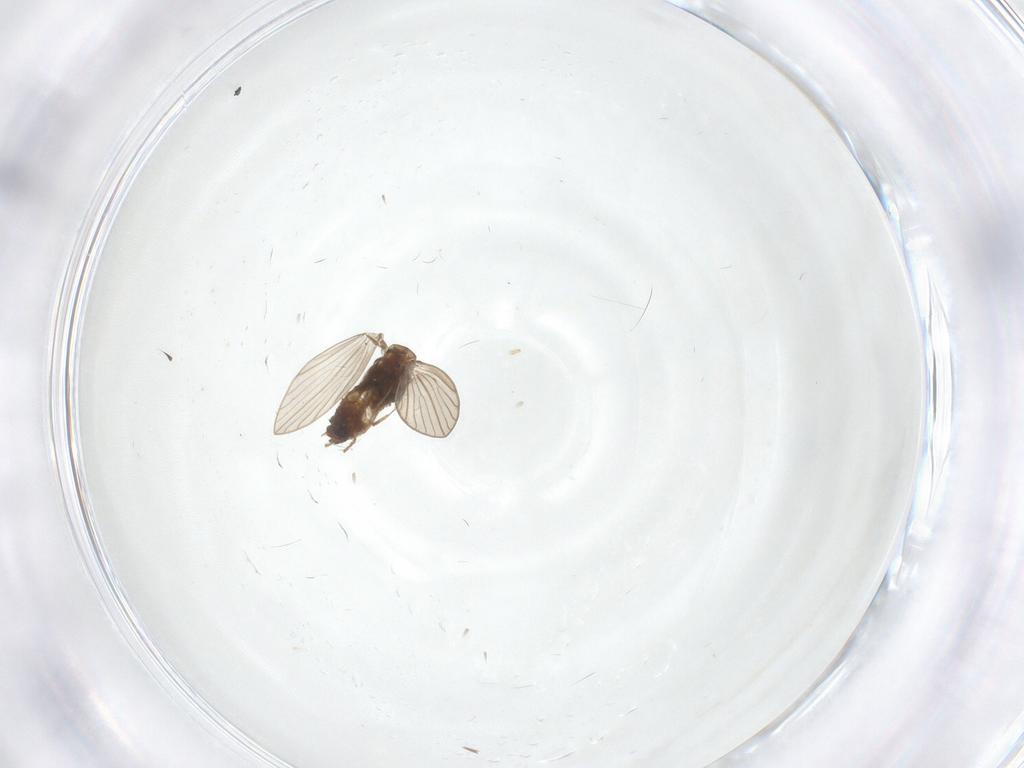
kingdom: Animalia
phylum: Arthropoda
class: Insecta
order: Diptera
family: Psychodidae
